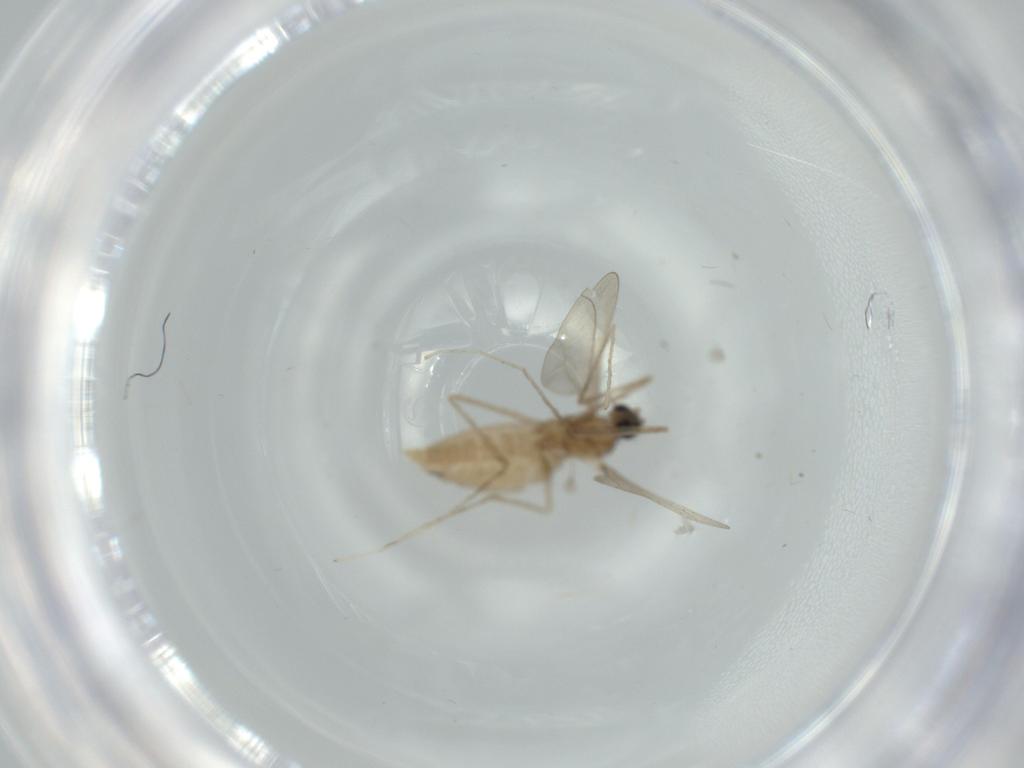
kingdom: Animalia
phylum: Arthropoda
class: Insecta
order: Diptera
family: Cecidomyiidae
